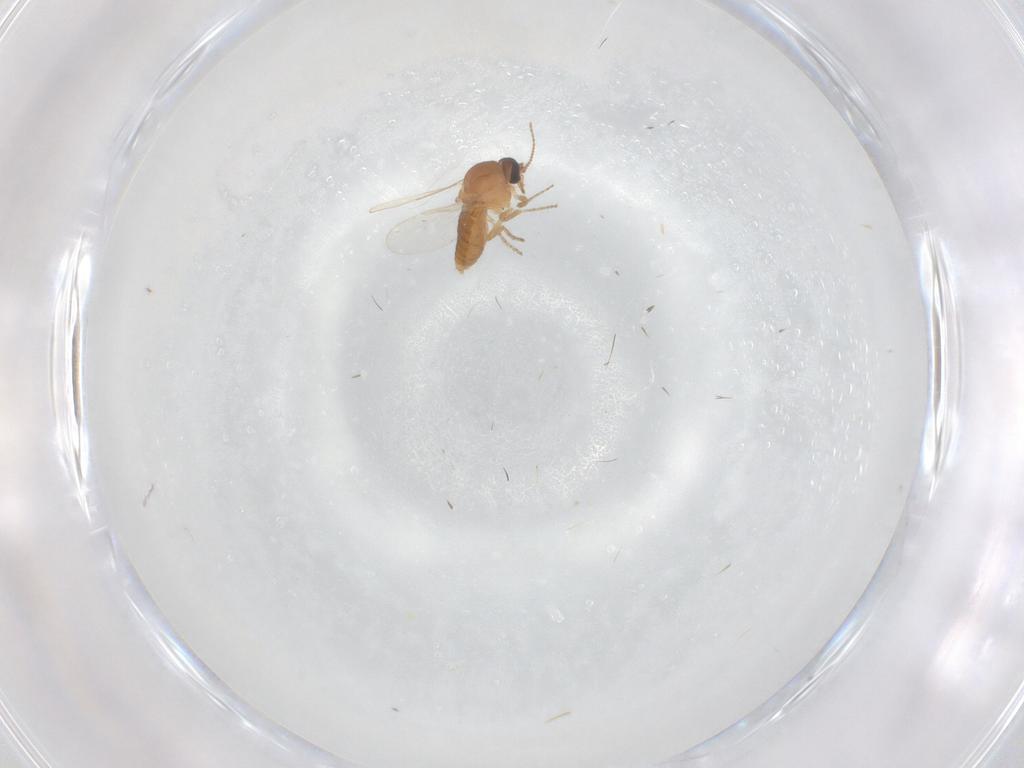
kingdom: Animalia
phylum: Arthropoda
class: Insecta
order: Diptera
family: Ceratopogonidae
